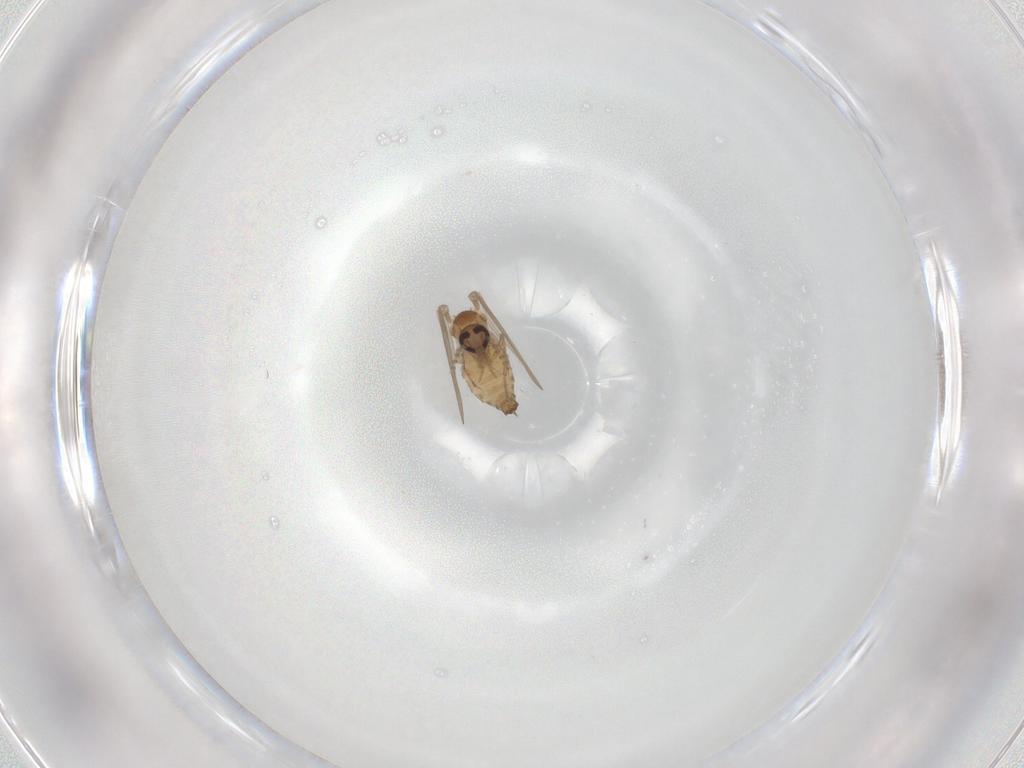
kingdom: Animalia
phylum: Arthropoda
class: Insecta
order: Diptera
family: Psychodidae
